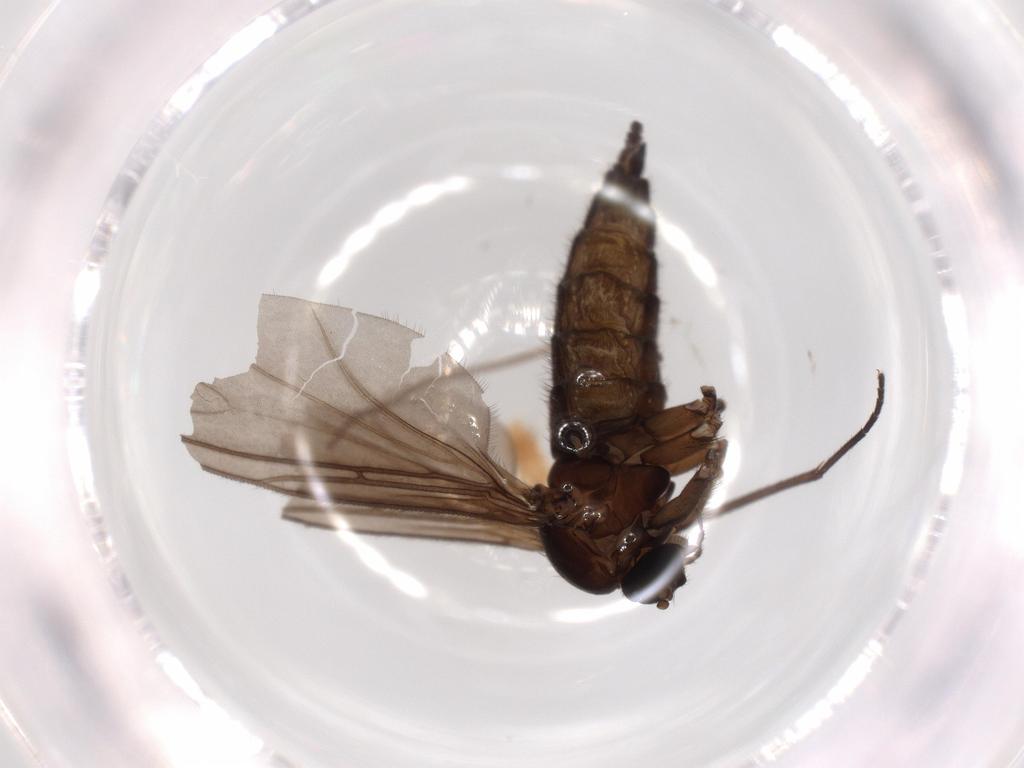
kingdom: Animalia
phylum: Arthropoda
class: Insecta
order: Diptera
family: Sciaridae
